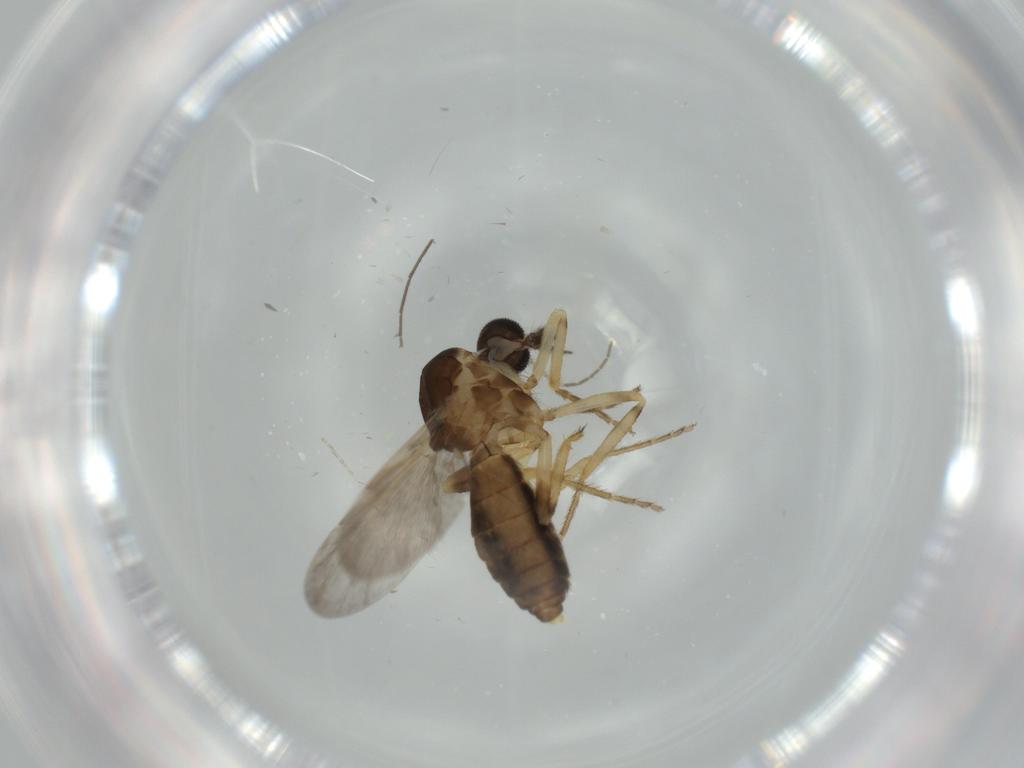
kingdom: Animalia
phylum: Arthropoda
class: Insecta
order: Diptera
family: Ceratopogonidae
